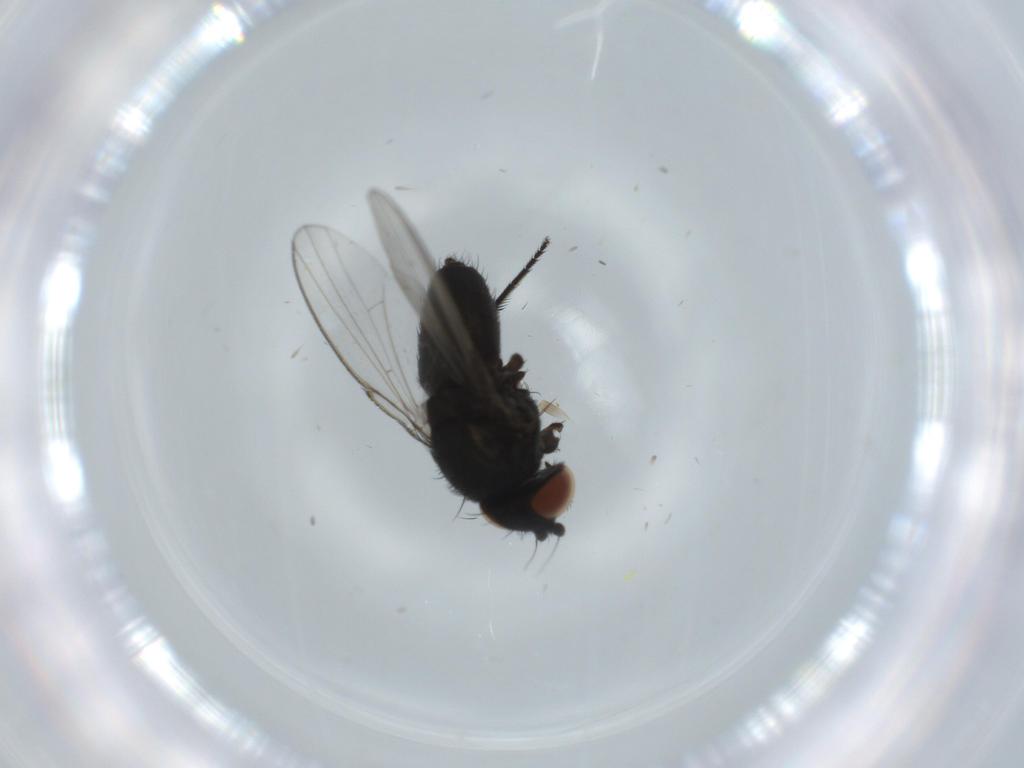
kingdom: Animalia
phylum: Arthropoda
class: Insecta
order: Diptera
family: Milichiidae
